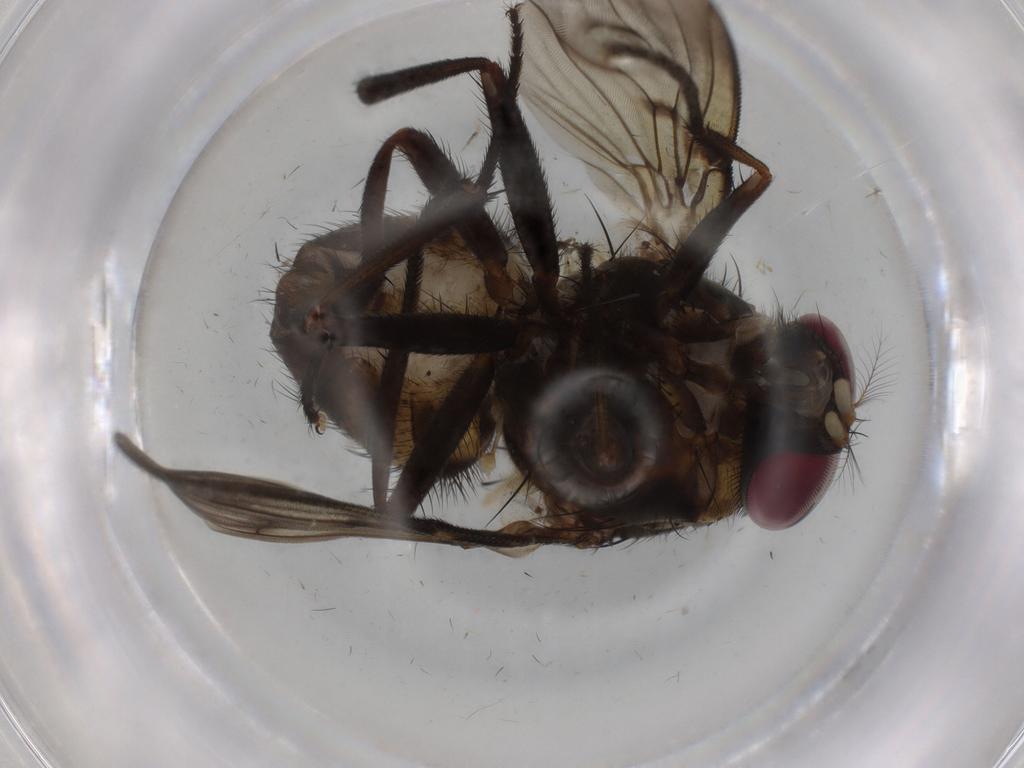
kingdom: Animalia
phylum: Arthropoda
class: Insecta
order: Diptera
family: Muscidae
